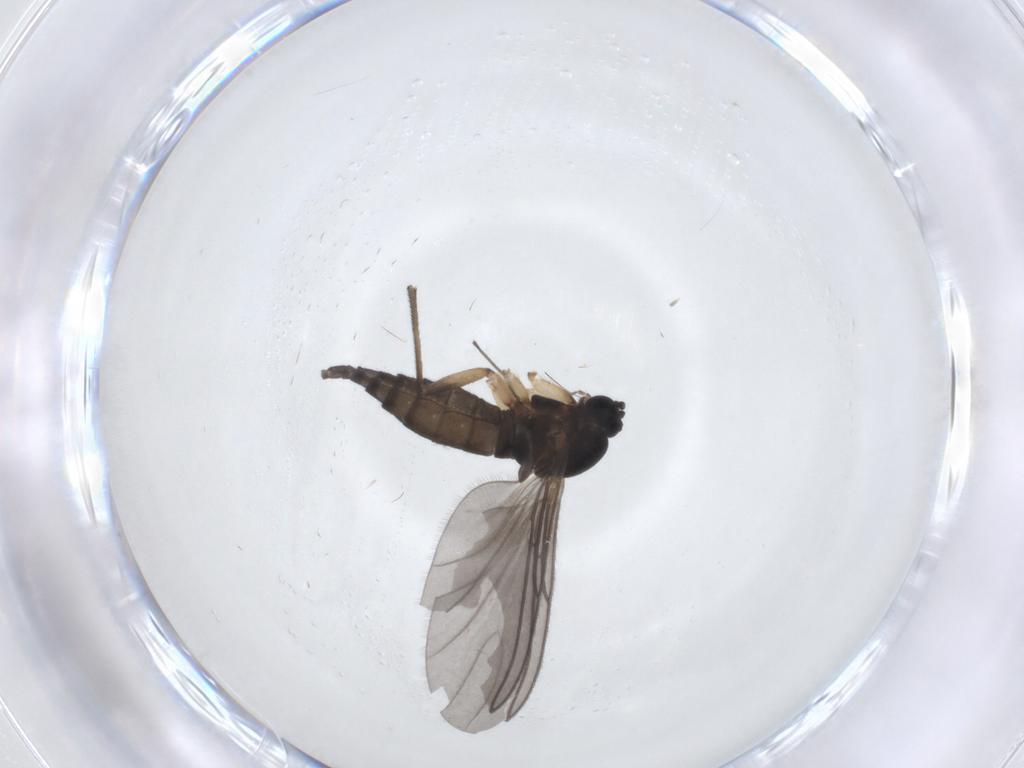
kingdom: Animalia
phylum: Arthropoda
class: Insecta
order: Diptera
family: Sciaridae
